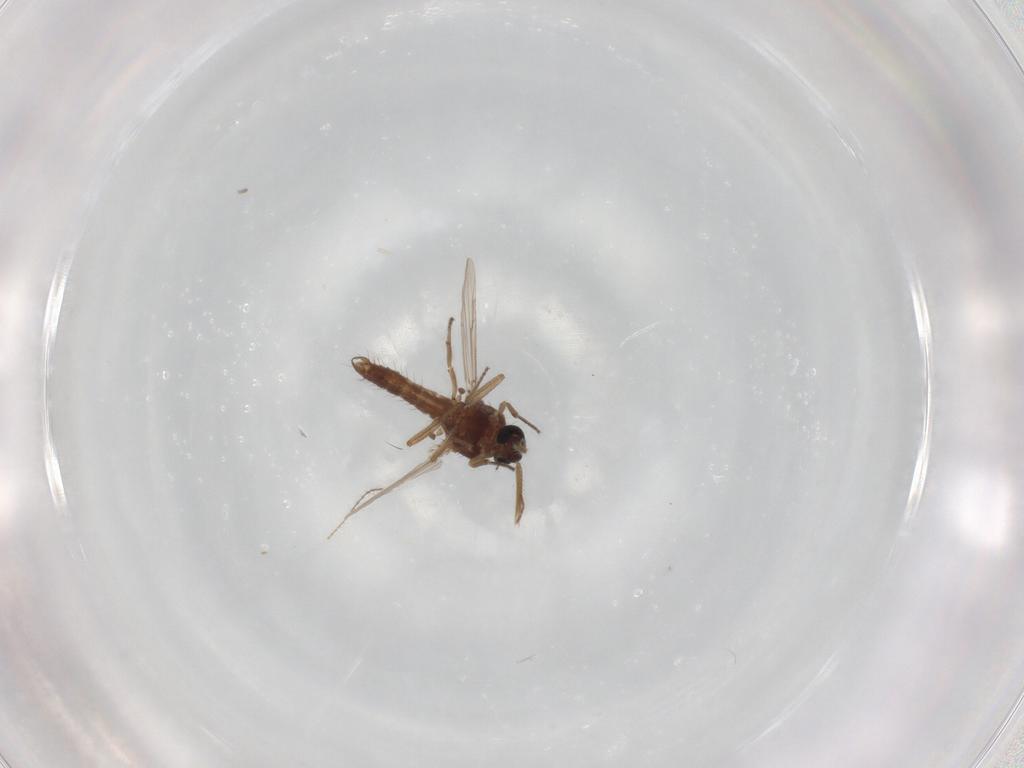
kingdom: Animalia
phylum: Arthropoda
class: Insecta
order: Diptera
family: Ceratopogonidae
